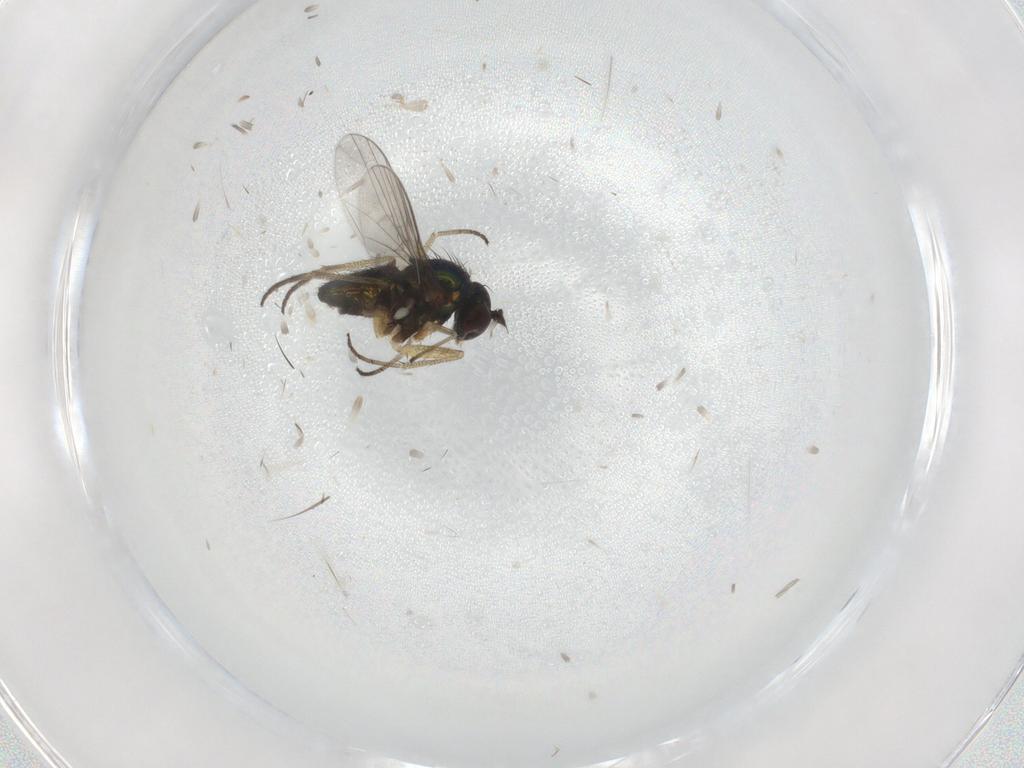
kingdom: Animalia
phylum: Arthropoda
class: Insecta
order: Diptera
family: Dolichopodidae
